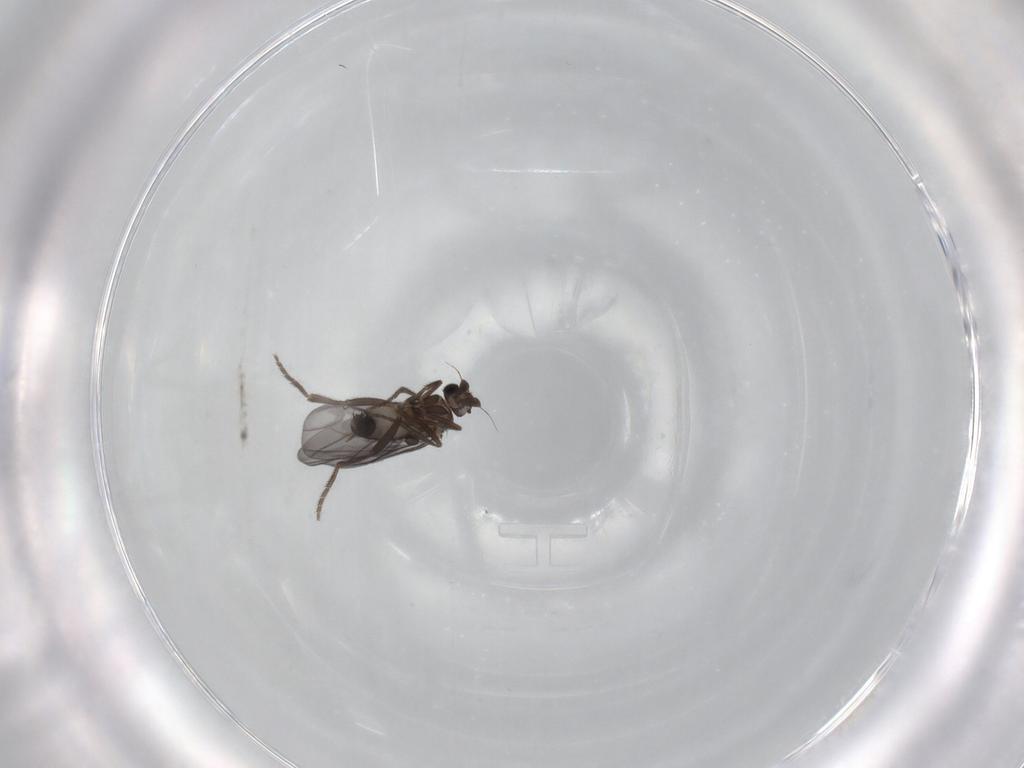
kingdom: Animalia
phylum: Arthropoda
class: Insecta
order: Diptera
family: Phoridae
